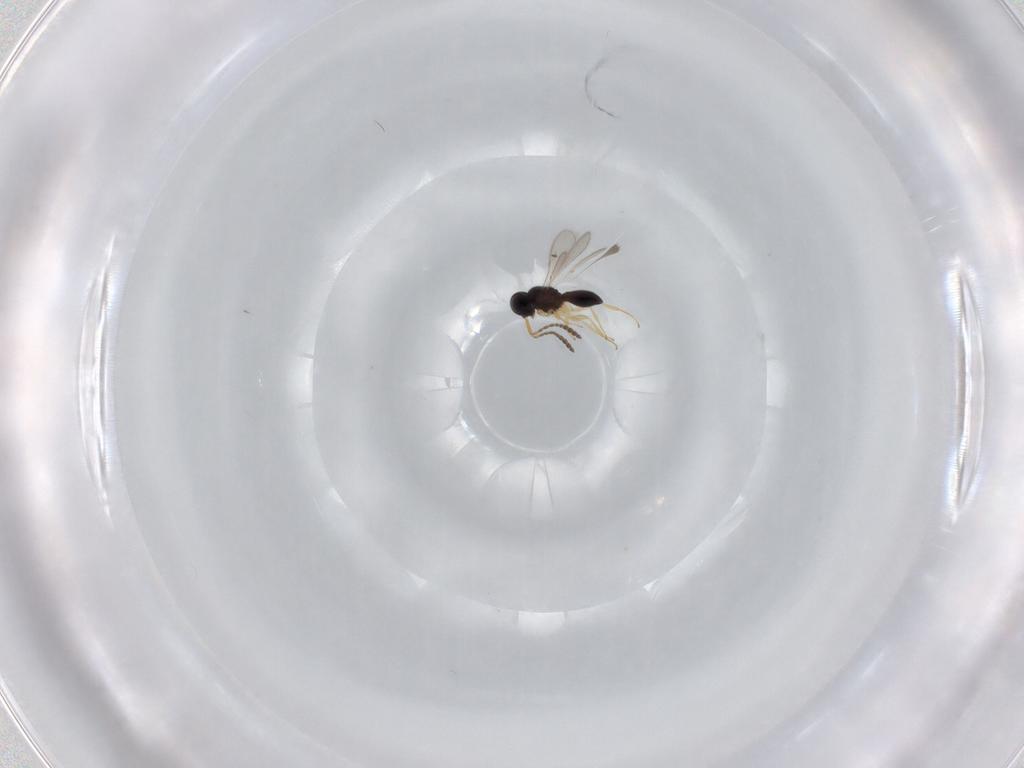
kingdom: Animalia
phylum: Arthropoda
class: Insecta
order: Hymenoptera
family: Scelionidae
